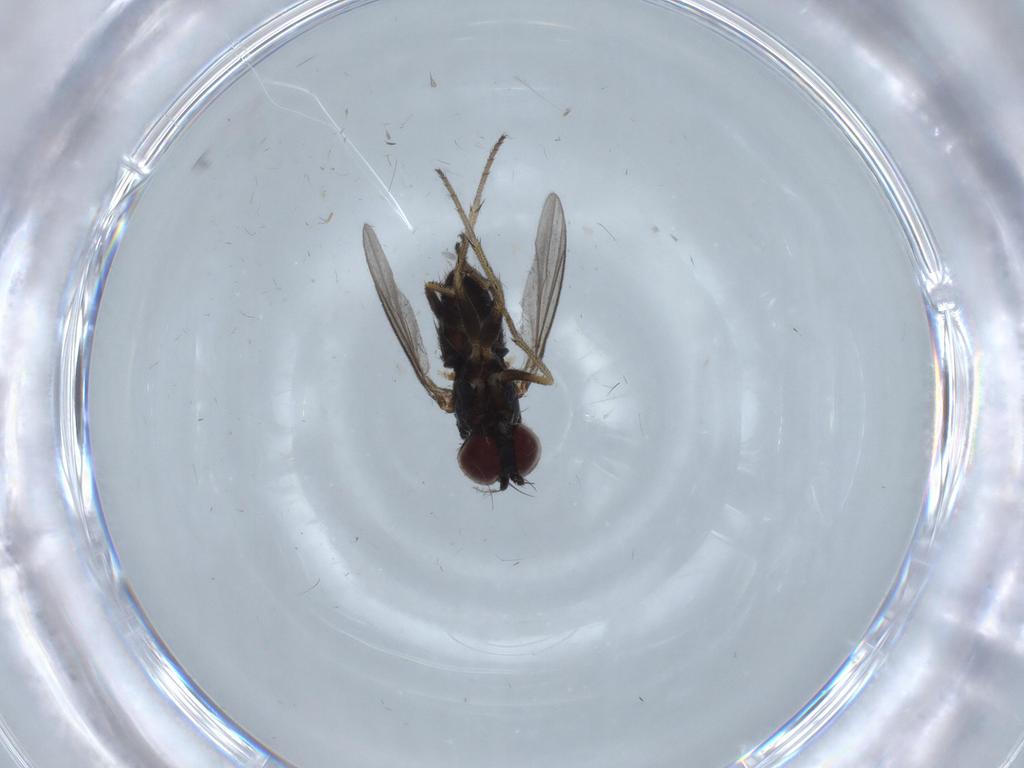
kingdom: Animalia
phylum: Arthropoda
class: Insecta
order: Diptera
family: Dolichopodidae
